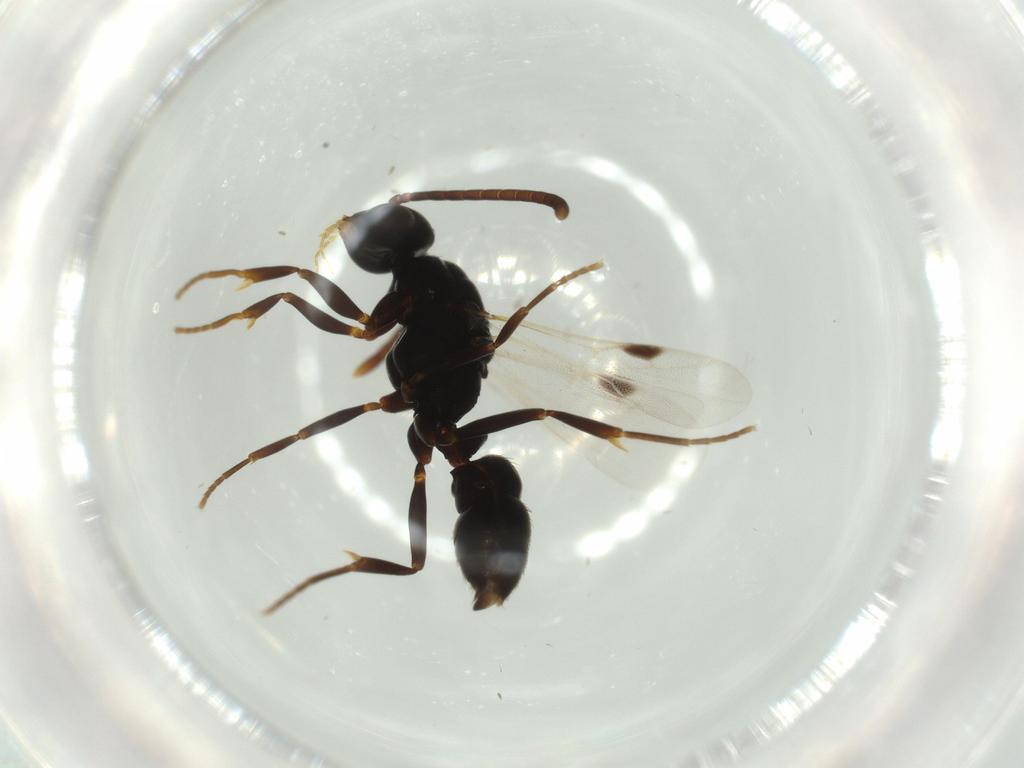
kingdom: Animalia
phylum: Arthropoda
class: Insecta
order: Hymenoptera
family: Formicidae
